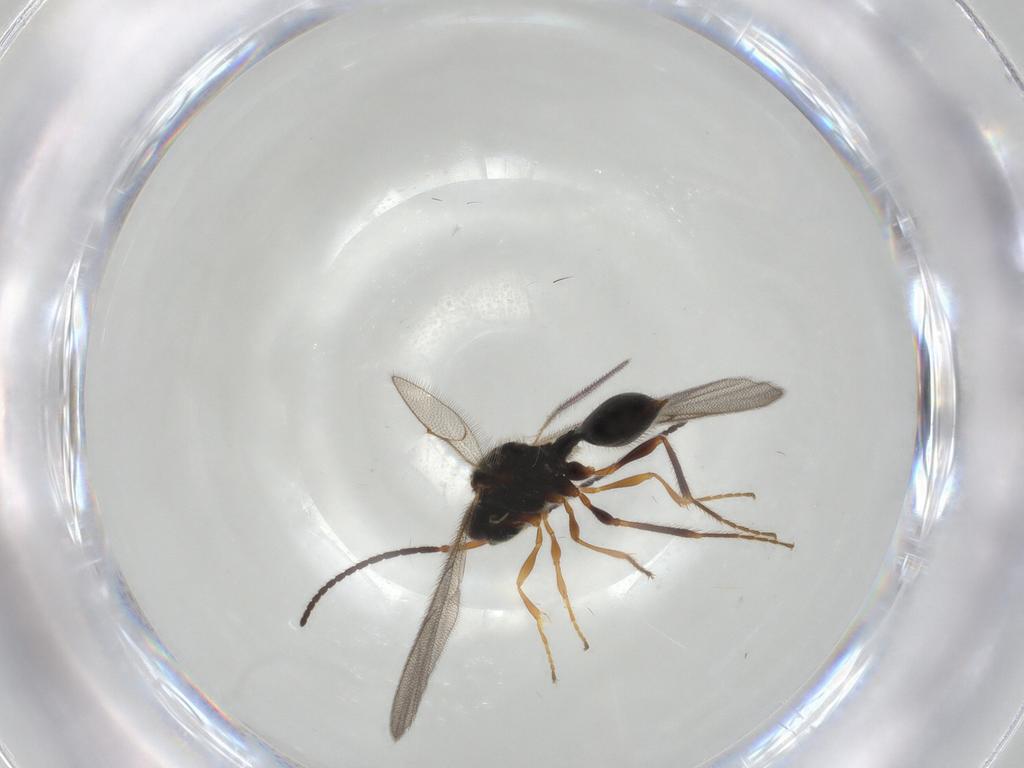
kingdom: Animalia
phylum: Arthropoda
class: Insecta
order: Hymenoptera
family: Diapriidae
